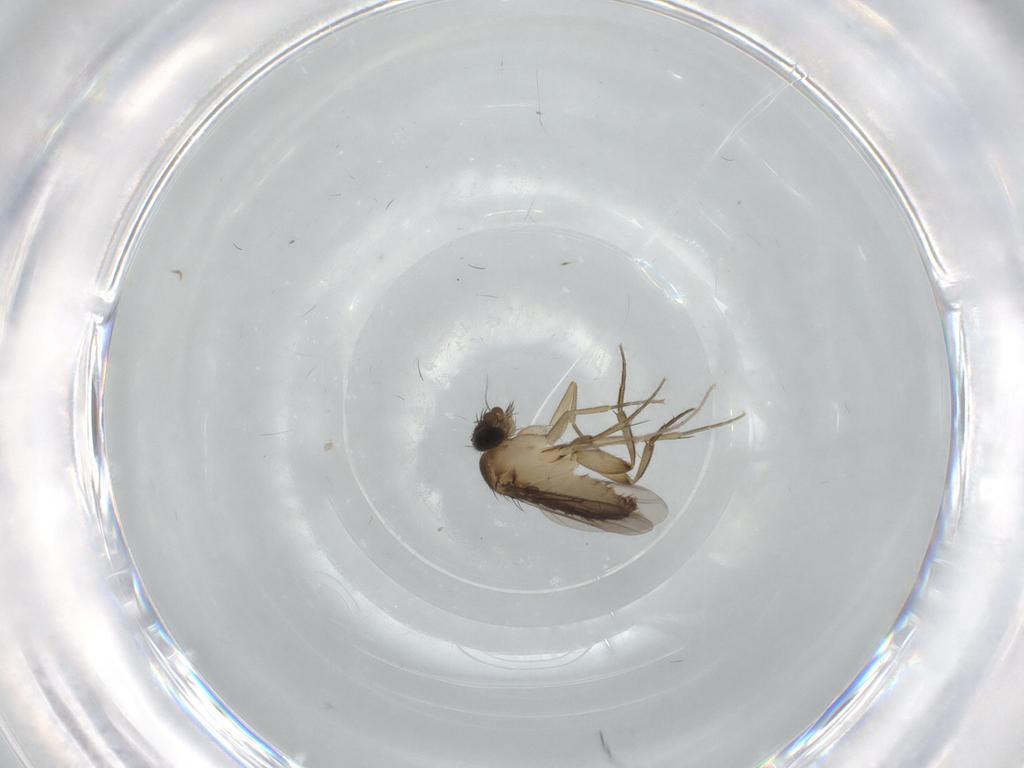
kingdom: Animalia
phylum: Arthropoda
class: Insecta
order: Diptera
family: Phoridae
